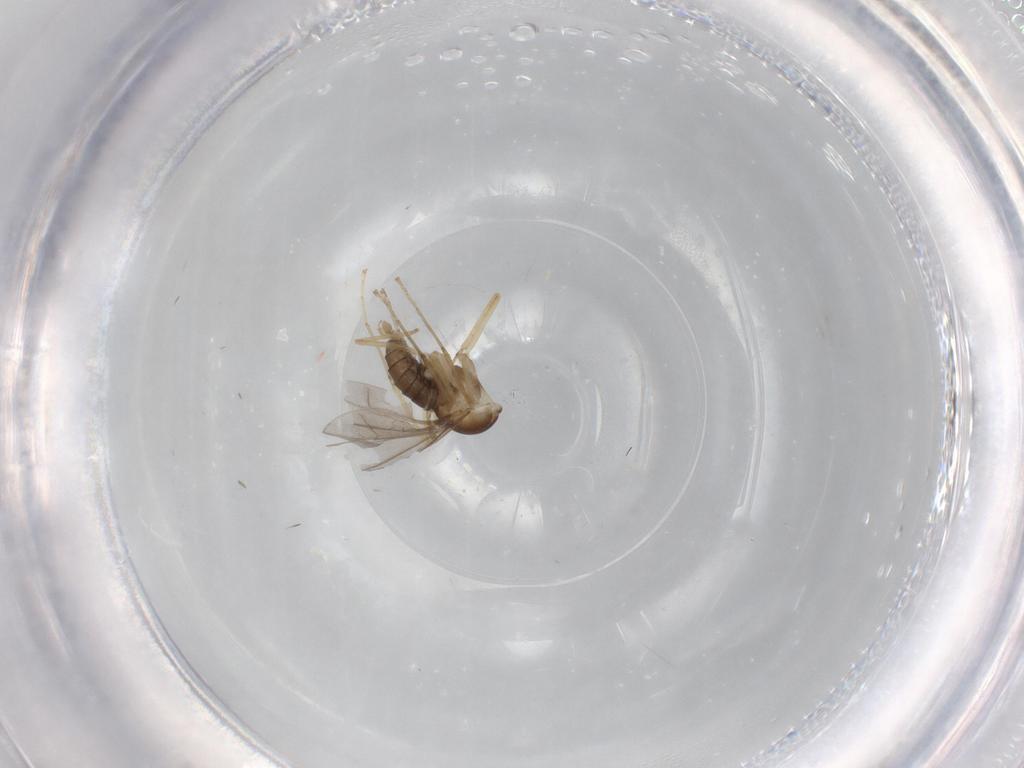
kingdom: Animalia
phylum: Arthropoda
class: Insecta
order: Diptera
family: Cecidomyiidae
